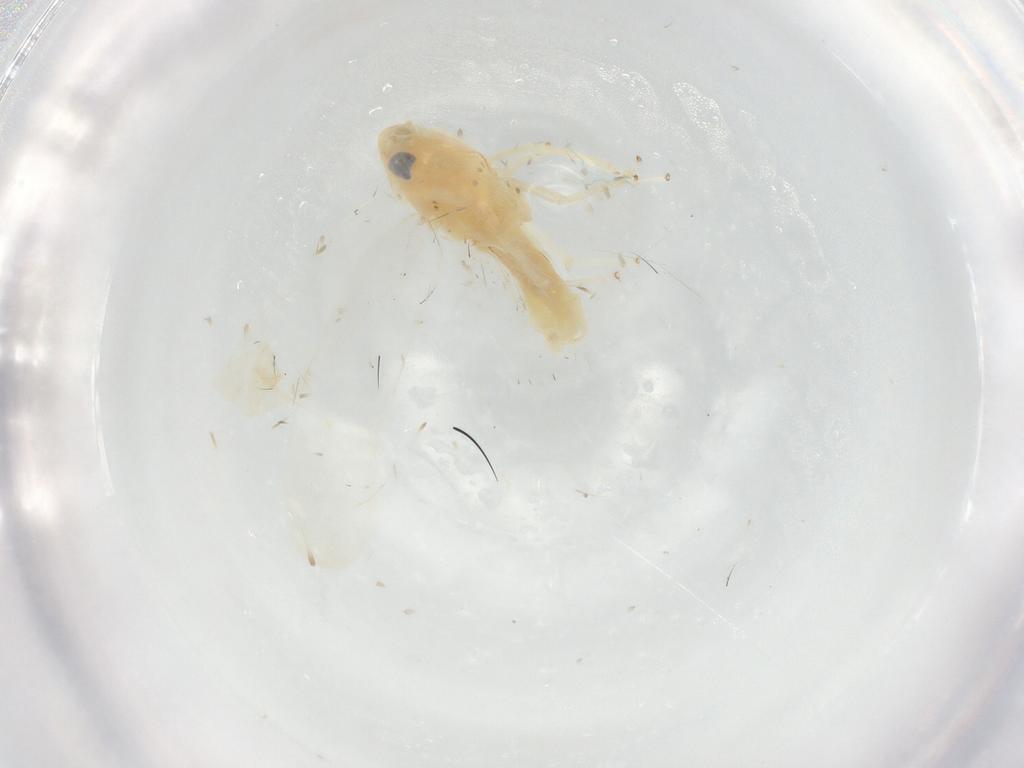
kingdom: Animalia
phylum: Arthropoda
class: Insecta
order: Hemiptera
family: Cicadellidae
